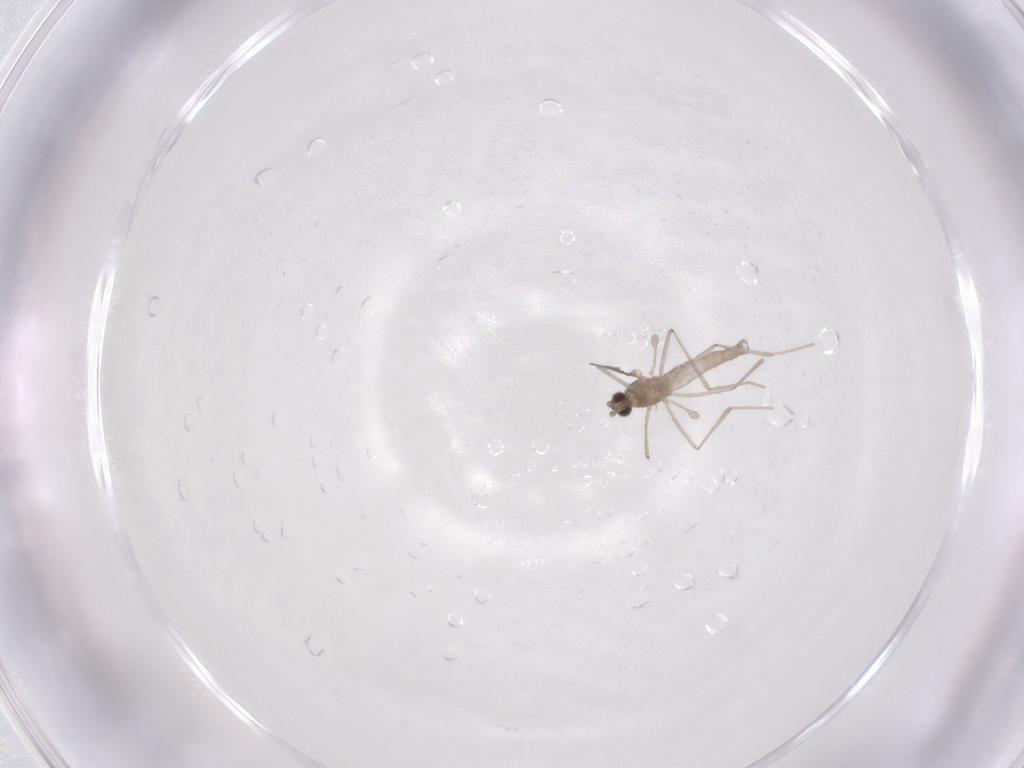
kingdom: Animalia
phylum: Arthropoda
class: Insecta
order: Diptera
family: Cecidomyiidae
